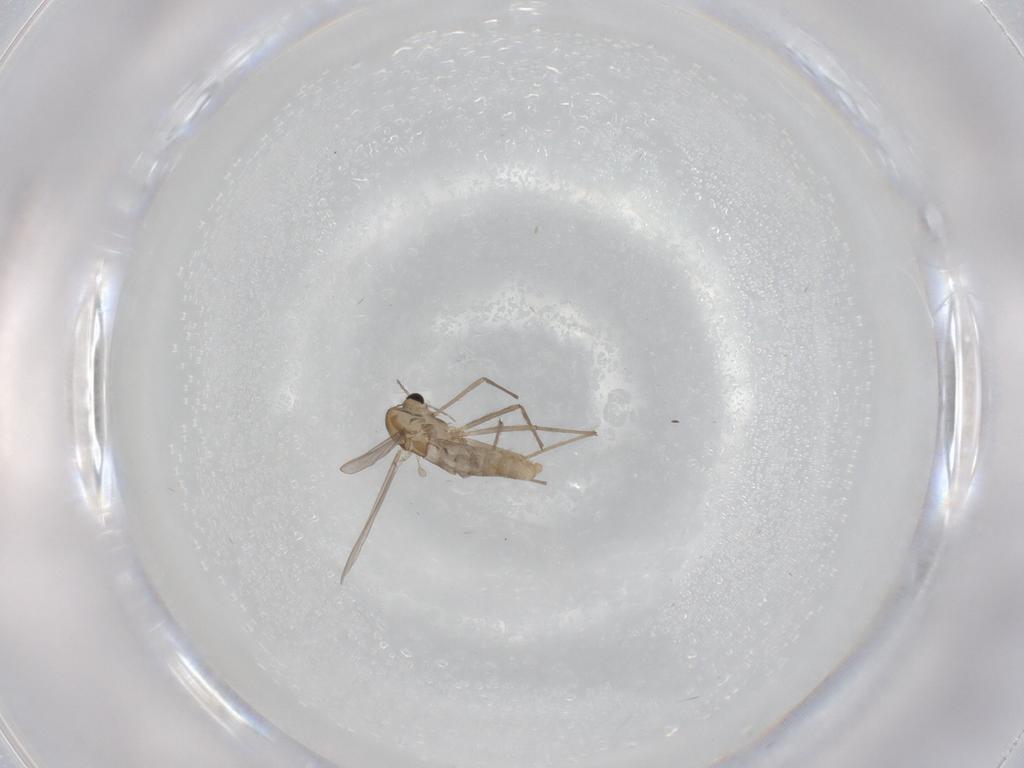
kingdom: Animalia
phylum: Arthropoda
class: Insecta
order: Diptera
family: Chironomidae
